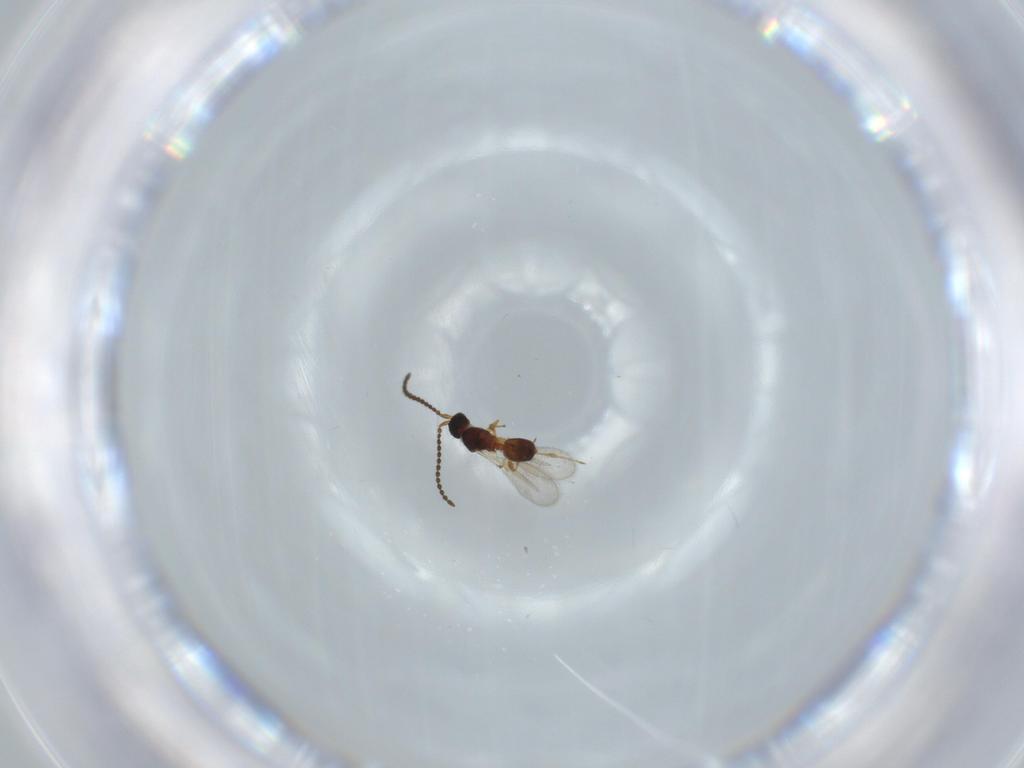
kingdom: Animalia
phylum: Arthropoda
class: Insecta
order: Hymenoptera
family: Diapriidae
